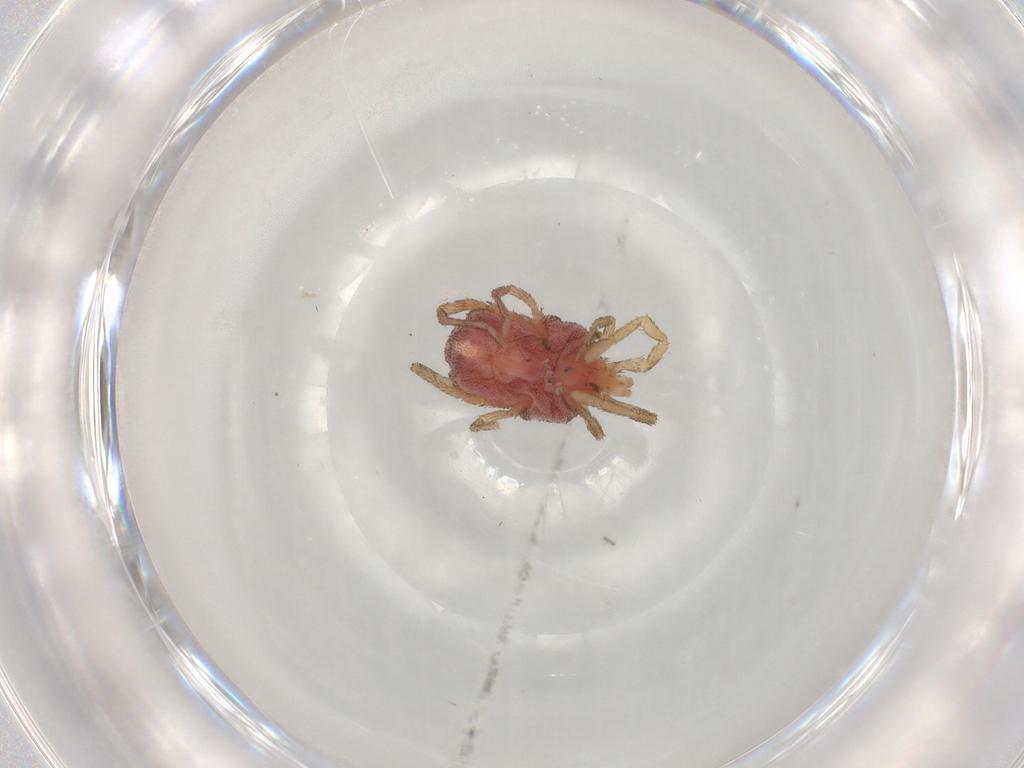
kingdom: Animalia
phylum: Arthropoda
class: Arachnida
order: Trombidiformes
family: Erythraeidae
